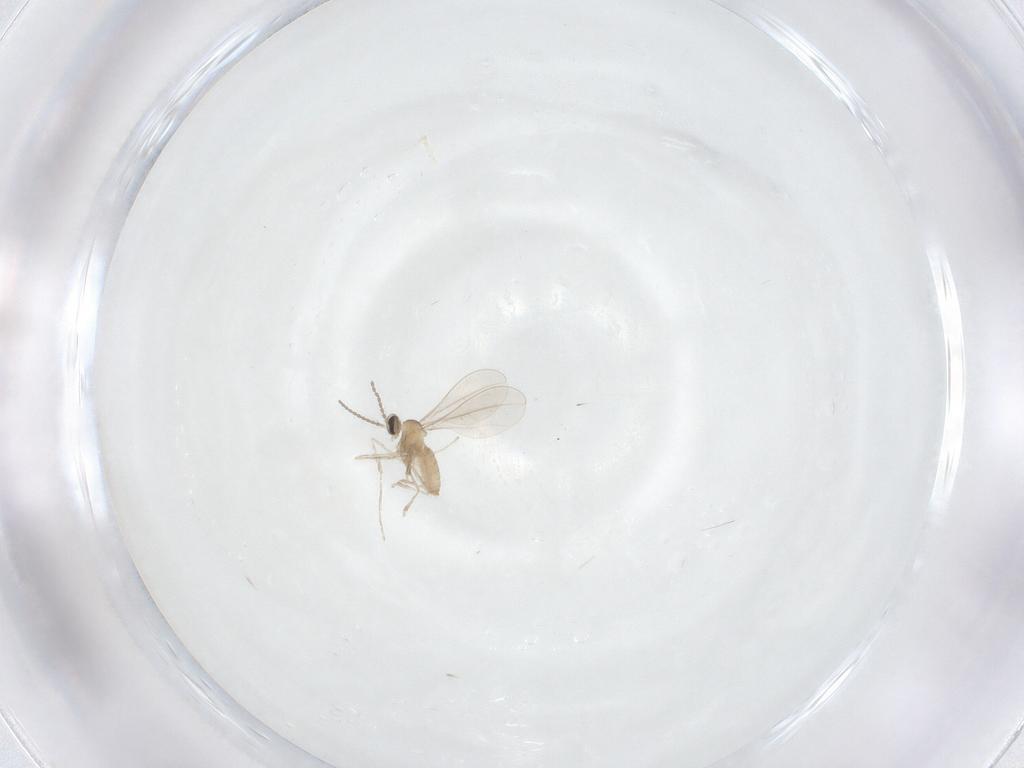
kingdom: Animalia
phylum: Arthropoda
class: Insecta
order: Diptera
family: Cecidomyiidae
